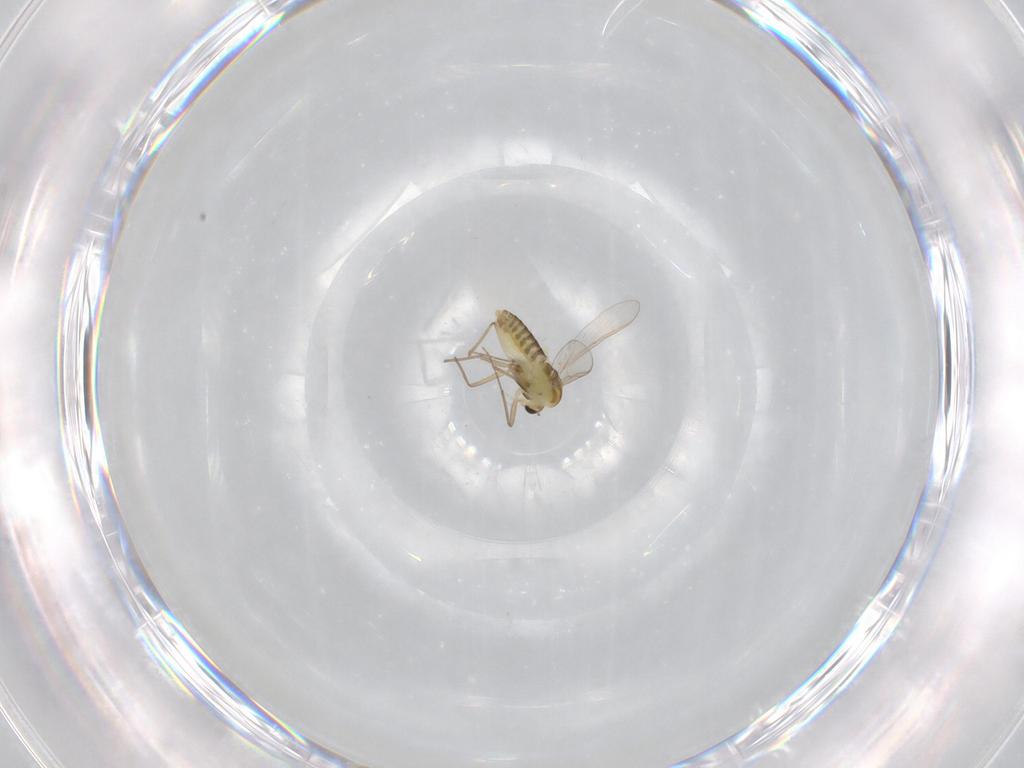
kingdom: Animalia
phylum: Arthropoda
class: Insecta
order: Diptera
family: Chironomidae
